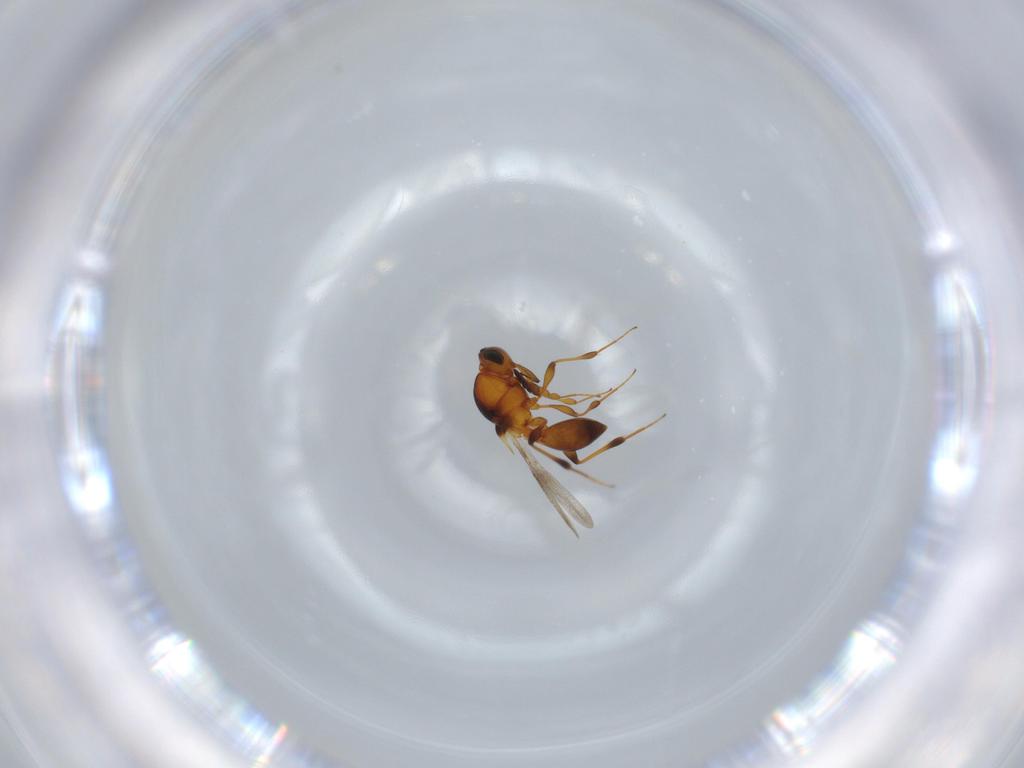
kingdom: Animalia
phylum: Arthropoda
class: Insecta
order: Hymenoptera
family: Platygastridae
